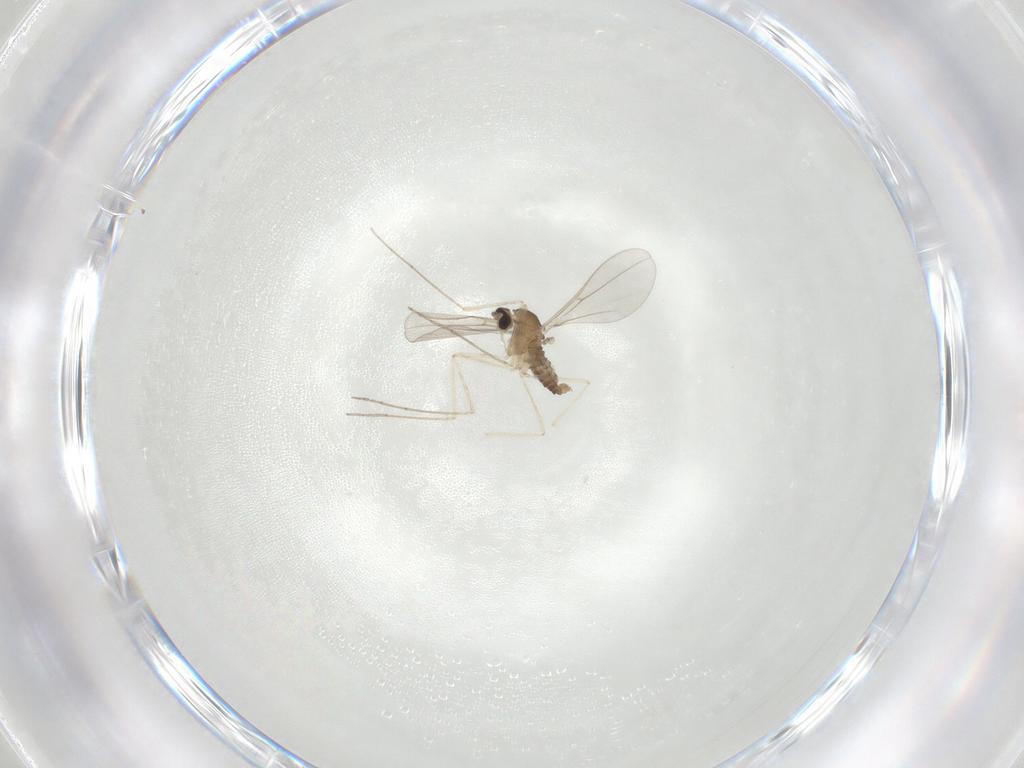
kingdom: Animalia
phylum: Arthropoda
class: Insecta
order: Diptera
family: Cecidomyiidae
